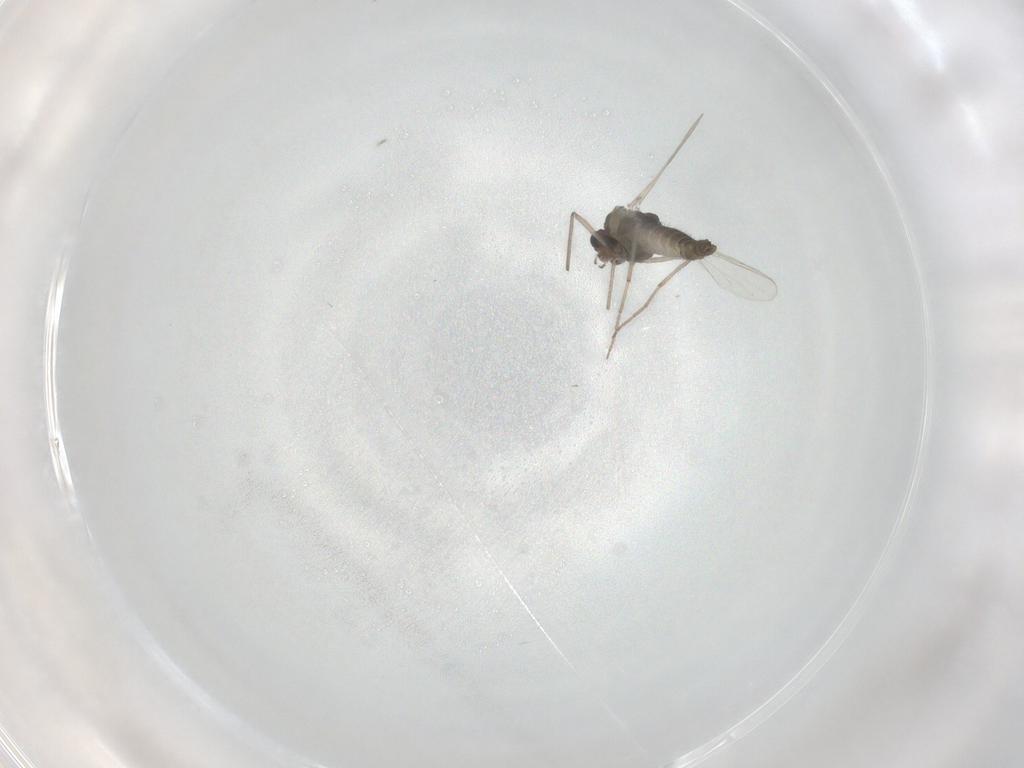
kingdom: Animalia
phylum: Arthropoda
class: Insecta
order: Diptera
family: Chironomidae
